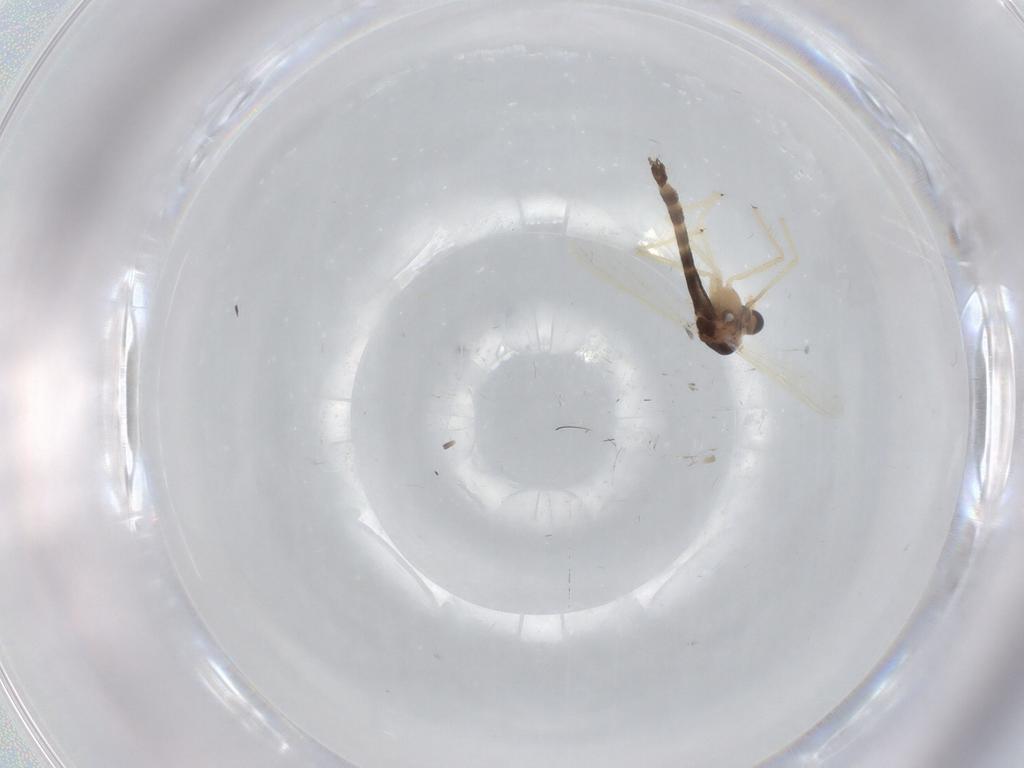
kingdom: Animalia
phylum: Arthropoda
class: Insecta
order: Diptera
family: Chironomidae
